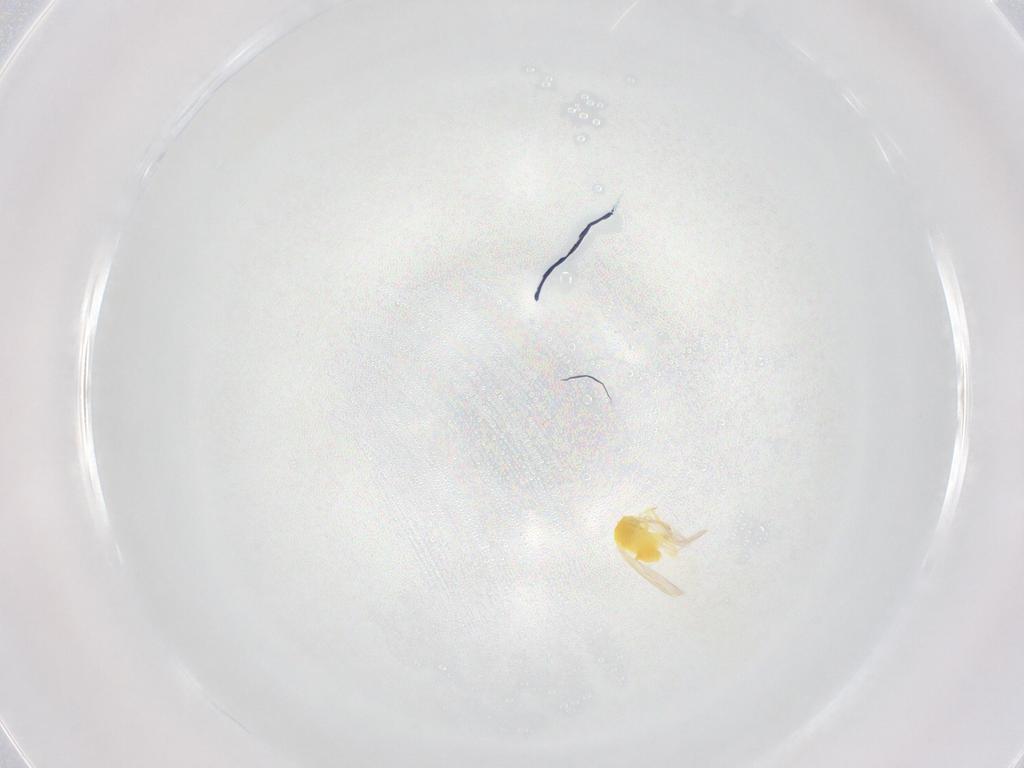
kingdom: Animalia
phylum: Arthropoda
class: Insecta
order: Hemiptera
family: Aleyrodidae
